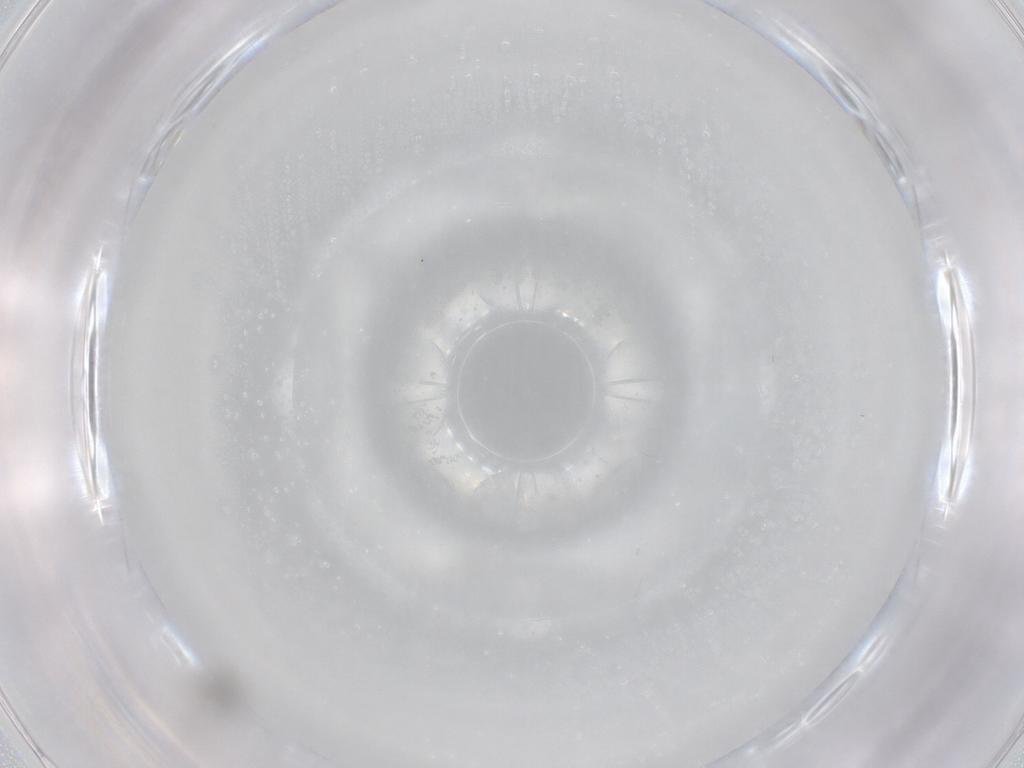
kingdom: Animalia
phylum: Arthropoda
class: Insecta
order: Diptera
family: Cecidomyiidae
